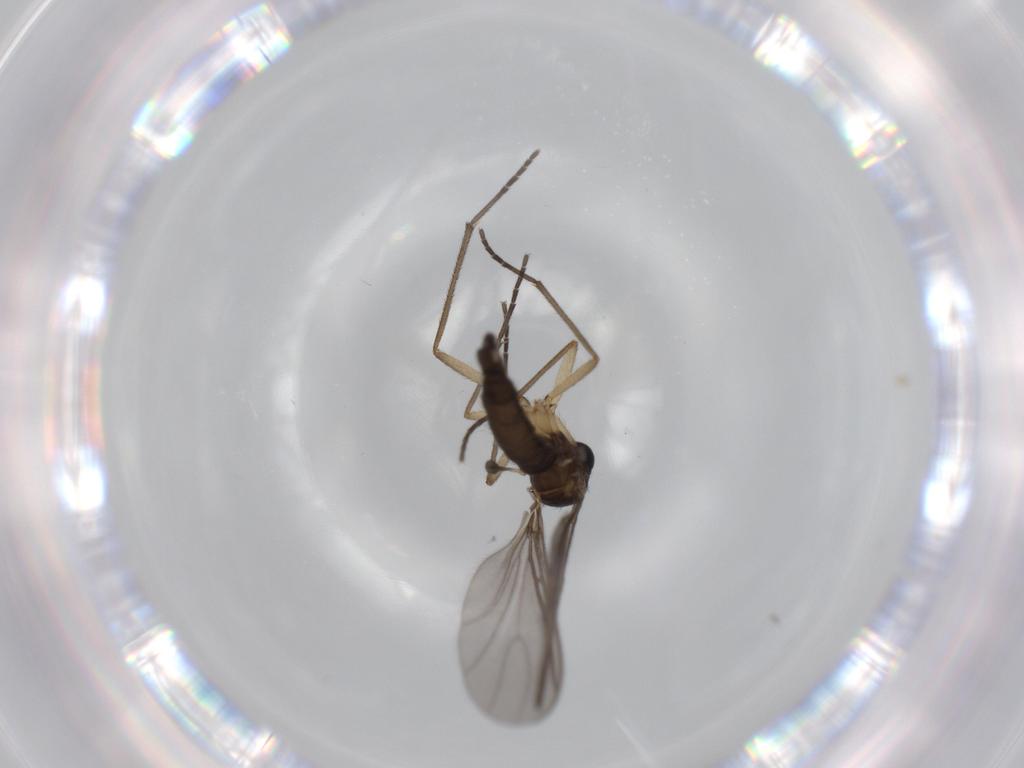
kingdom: Animalia
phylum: Arthropoda
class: Insecta
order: Diptera
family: Sciaridae
